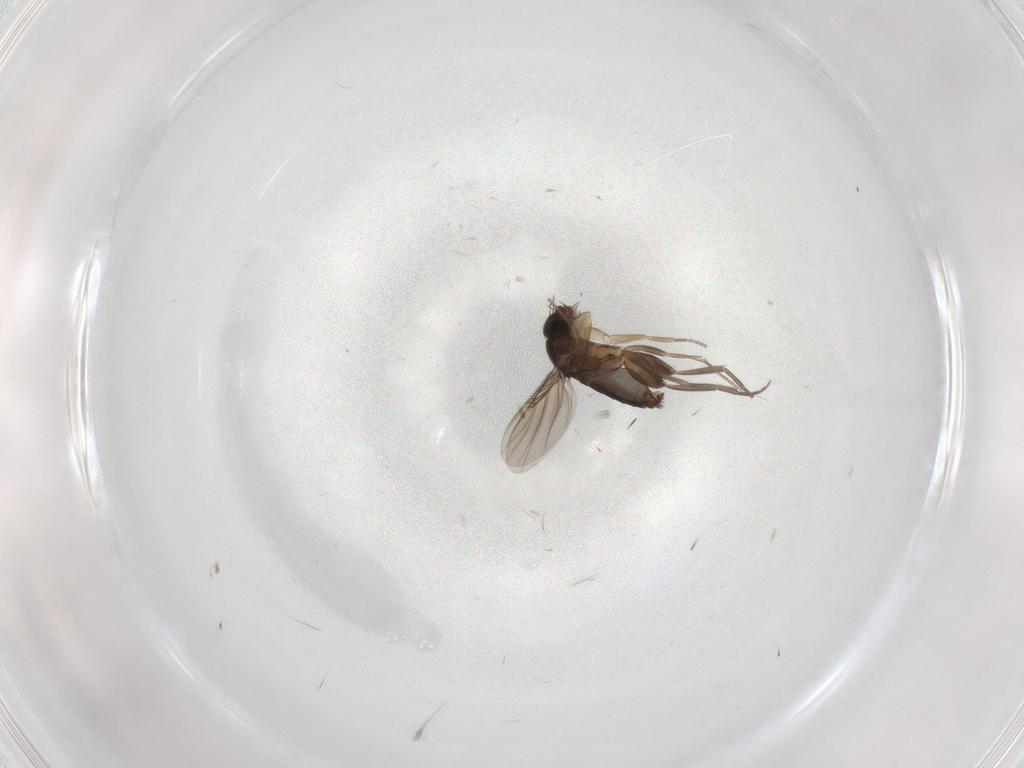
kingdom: Animalia
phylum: Arthropoda
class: Insecta
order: Diptera
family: Phoridae
